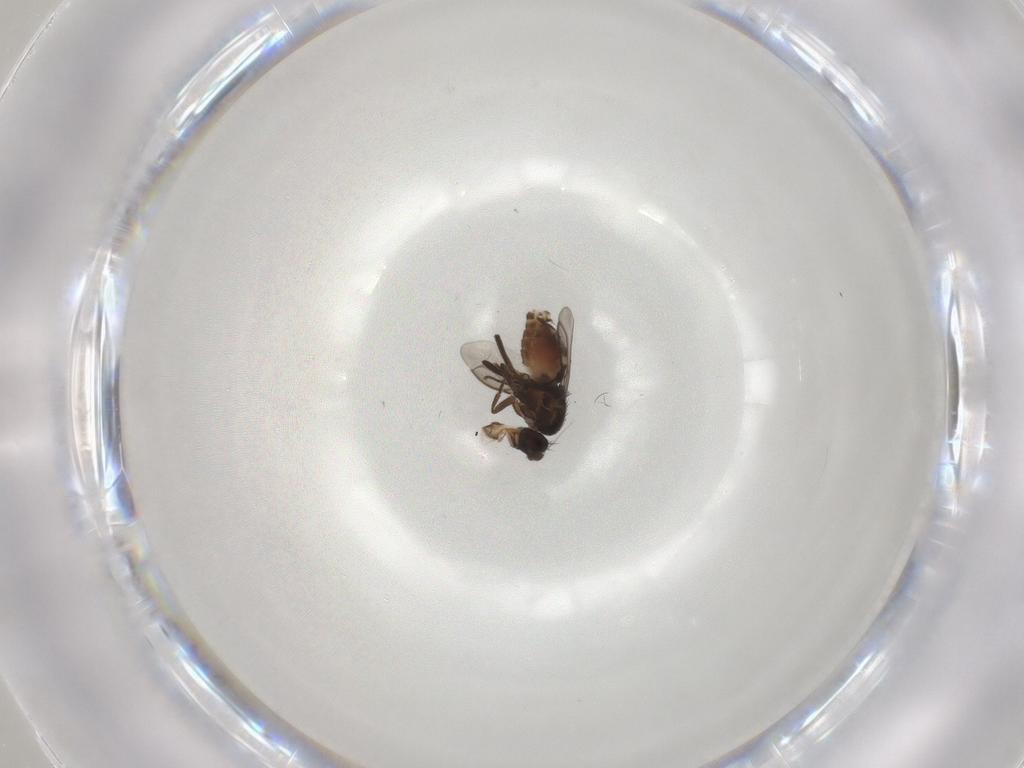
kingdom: Animalia
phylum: Arthropoda
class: Insecta
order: Diptera
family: Sphaeroceridae
